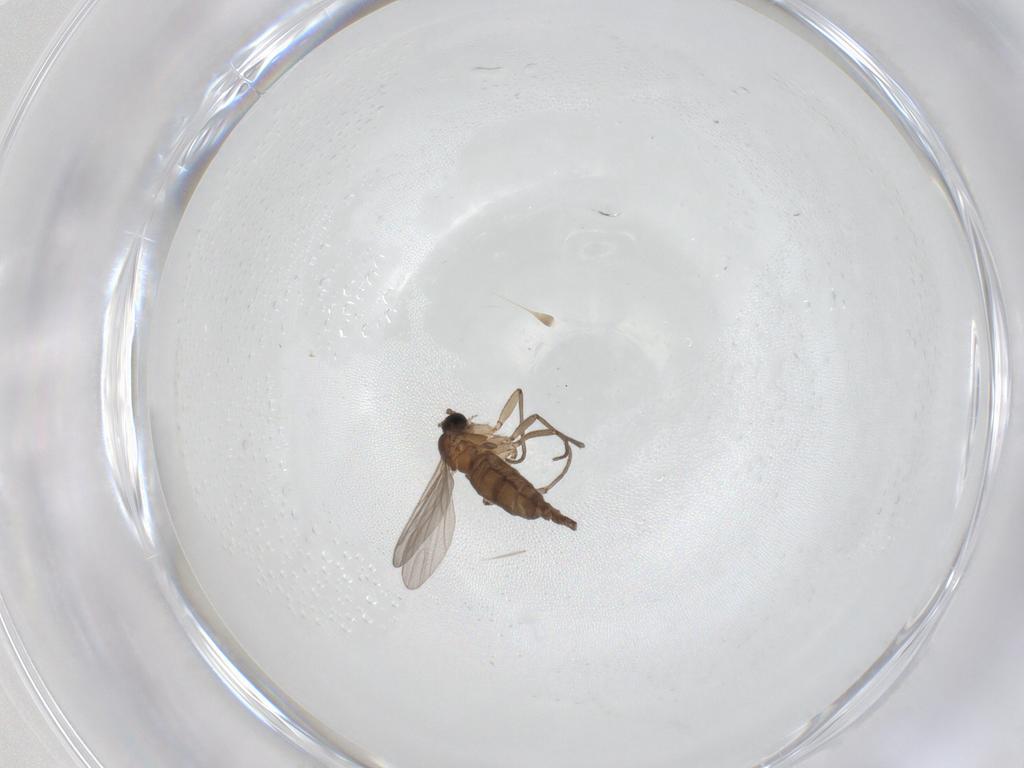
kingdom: Animalia
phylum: Arthropoda
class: Insecta
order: Diptera
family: Sciaridae
